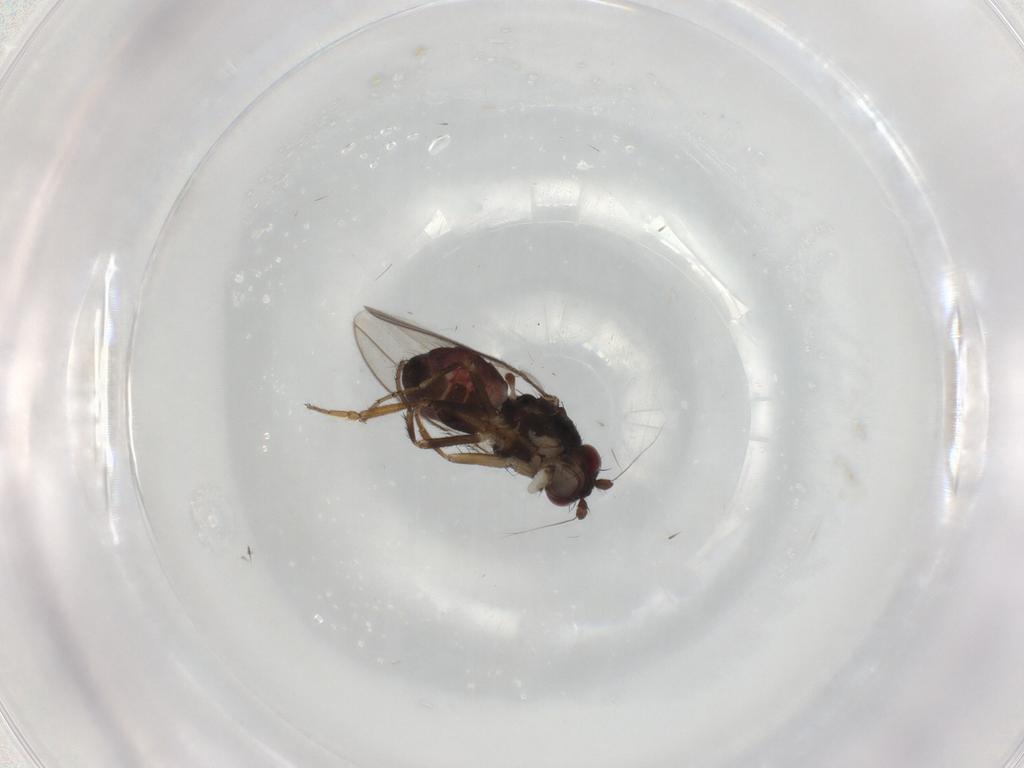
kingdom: Animalia
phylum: Arthropoda
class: Insecta
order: Diptera
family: Sphaeroceridae
